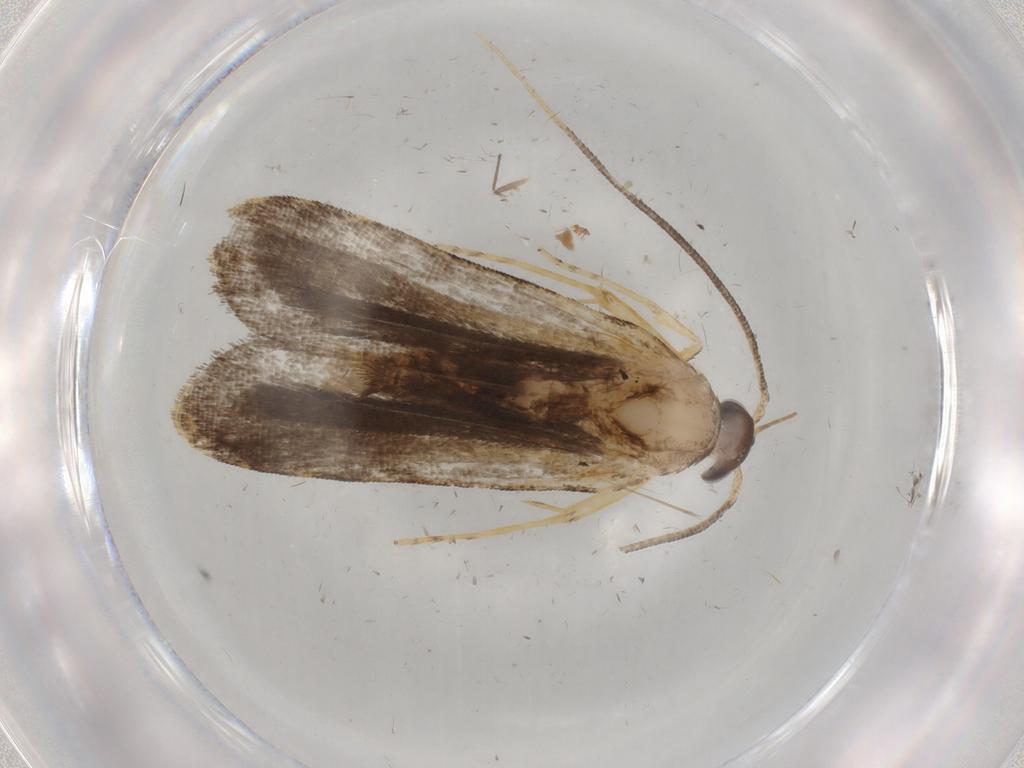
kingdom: Animalia
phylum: Arthropoda
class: Insecta
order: Lepidoptera
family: Cosmopterigidae
